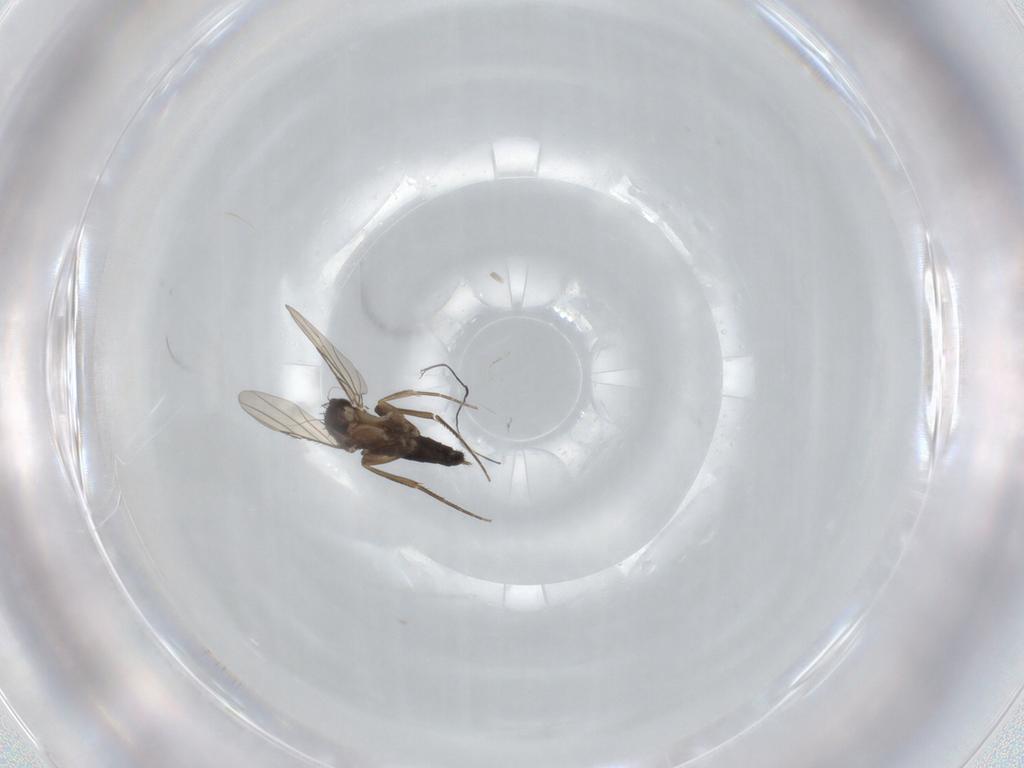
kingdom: Animalia
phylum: Arthropoda
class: Insecta
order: Diptera
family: Phoridae
